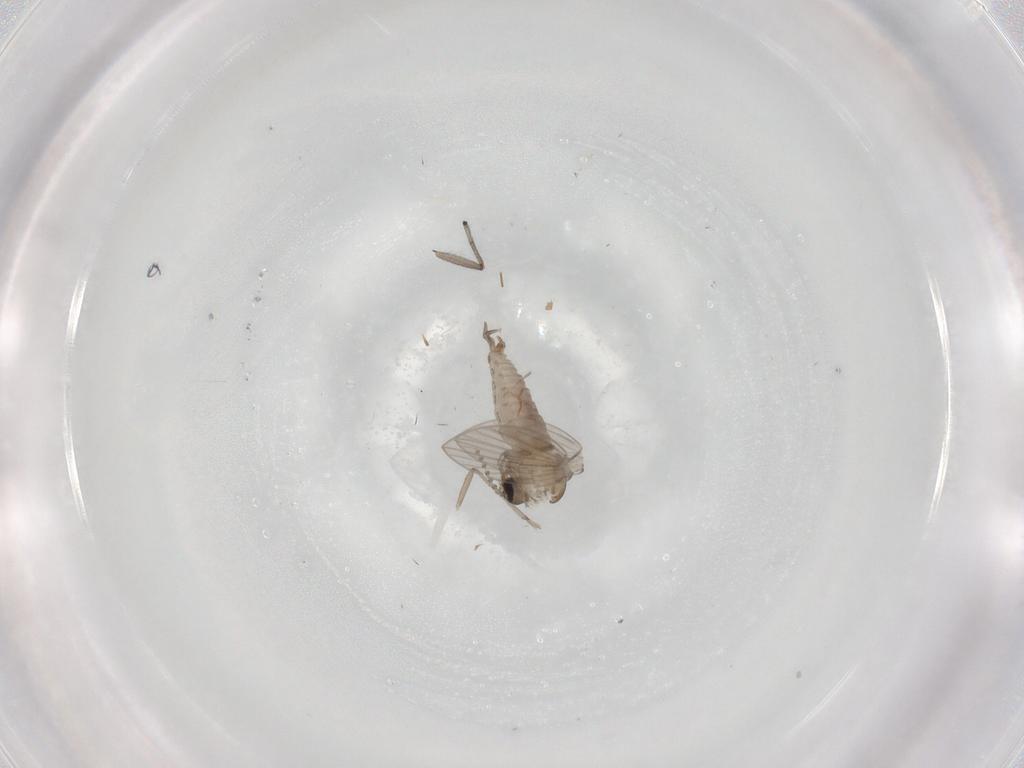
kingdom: Animalia
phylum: Arthropoda
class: Insecta
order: Diptera
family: Psychodidae
